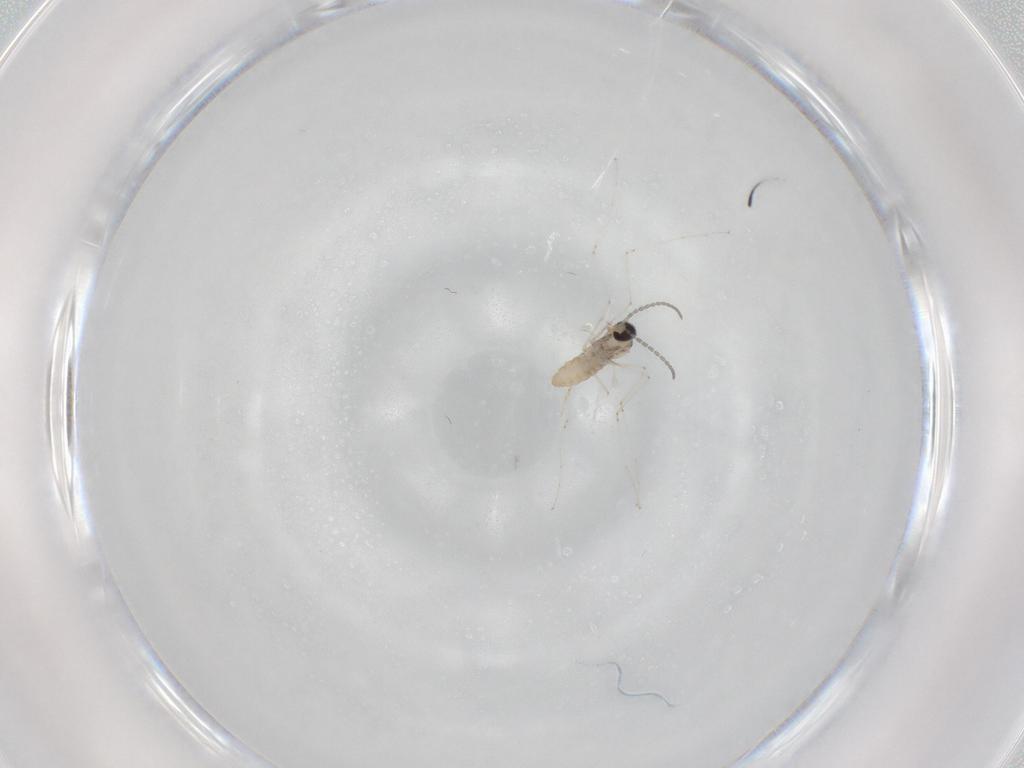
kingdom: Animalia
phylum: Arthropoda
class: Insecta
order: Diptera
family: Cecidomyiidae
